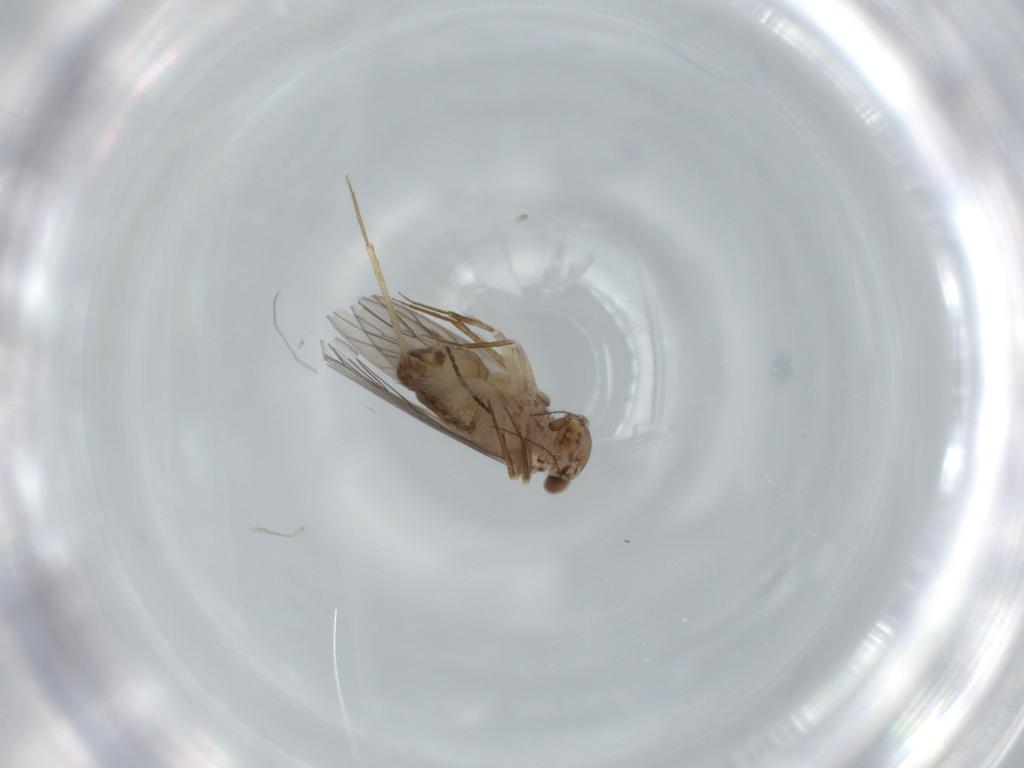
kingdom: Animalia
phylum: Arthropoda
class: Insecta
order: Psocodea
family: Lepidopsocidae
